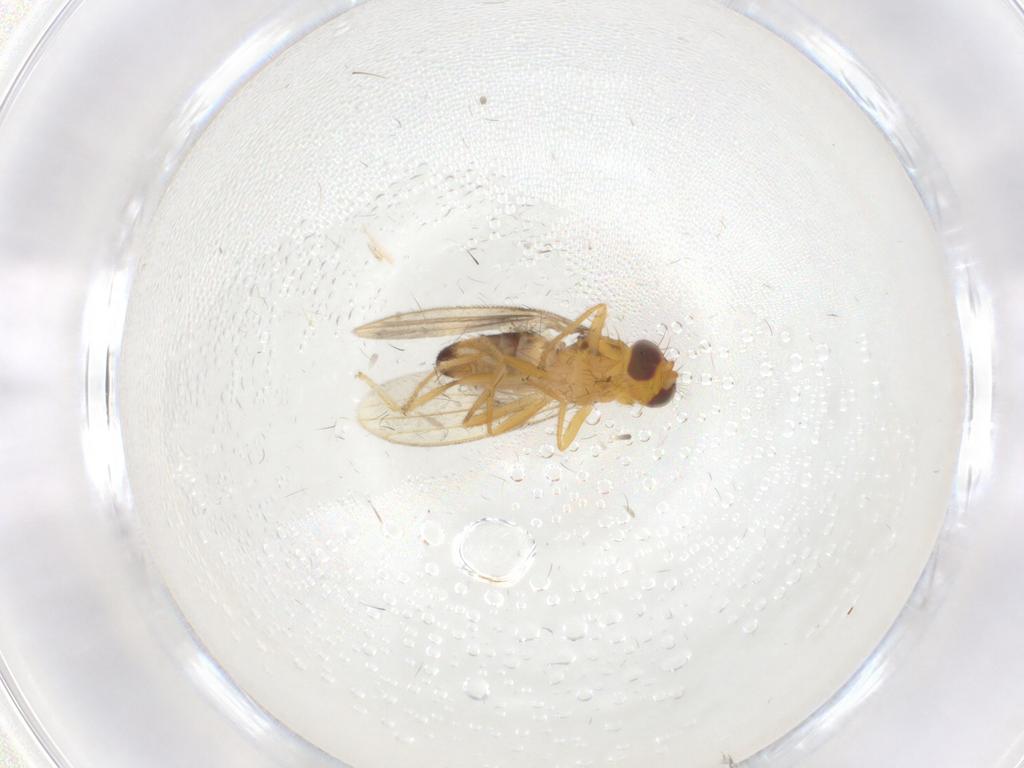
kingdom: Animalia
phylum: Arthropoda
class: Insecta
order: Diptera
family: Periscelididae
